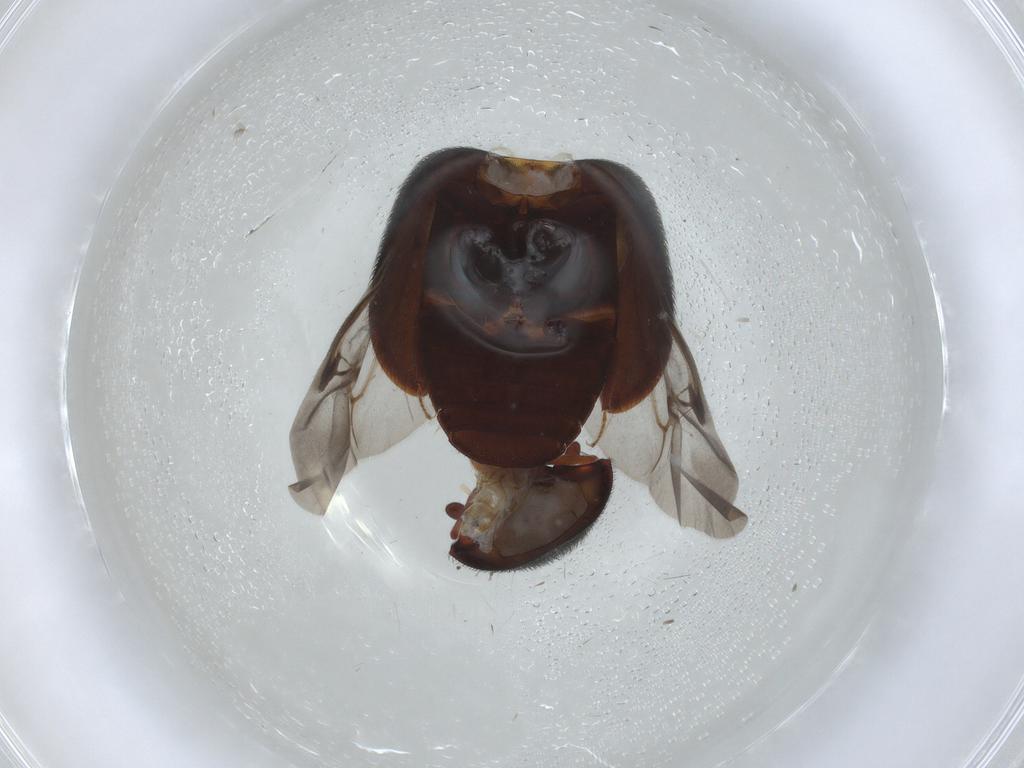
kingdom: Animalia
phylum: Arthropoda
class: Insecta
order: Coleoptera
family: Dermestidae
